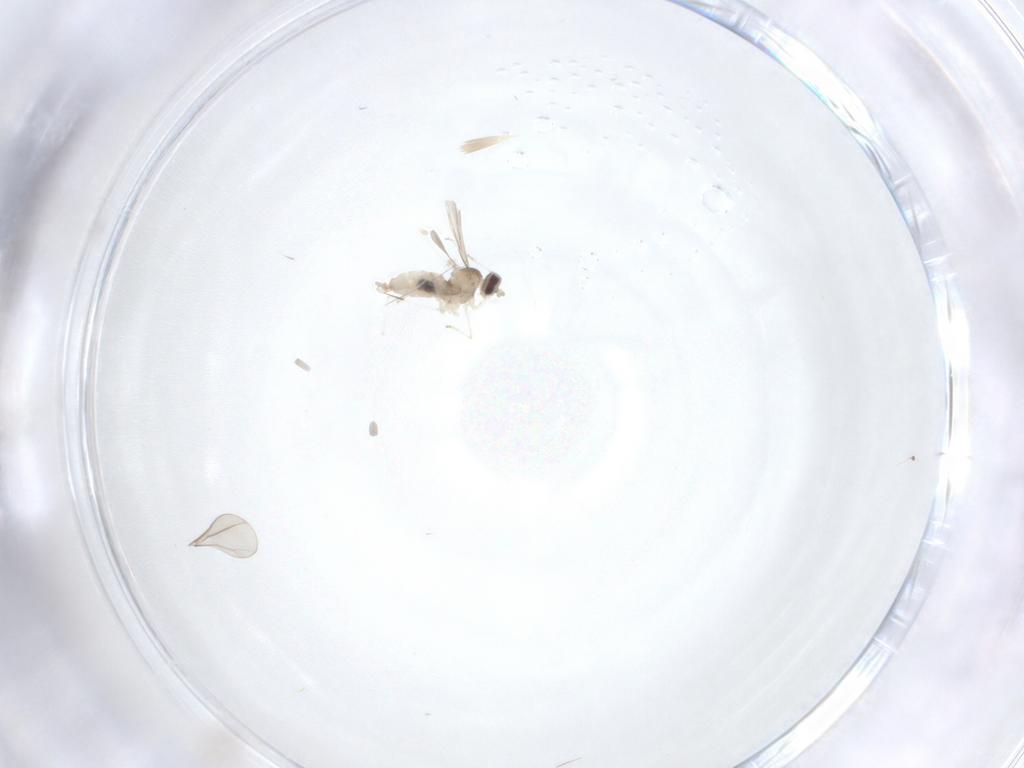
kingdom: Animalia
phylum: Arthropoda
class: Insecta
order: Diptera
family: Cecidomyiidae
